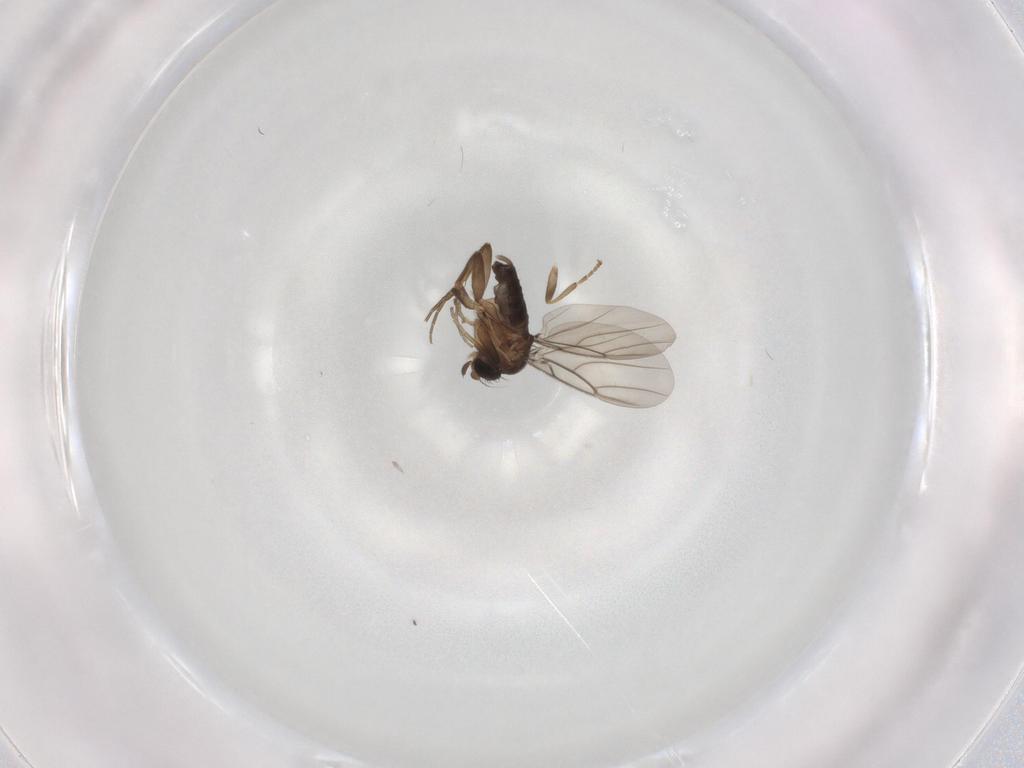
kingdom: Animalia
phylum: Arthropoda
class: Insecta
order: Diptera
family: Phoridae
